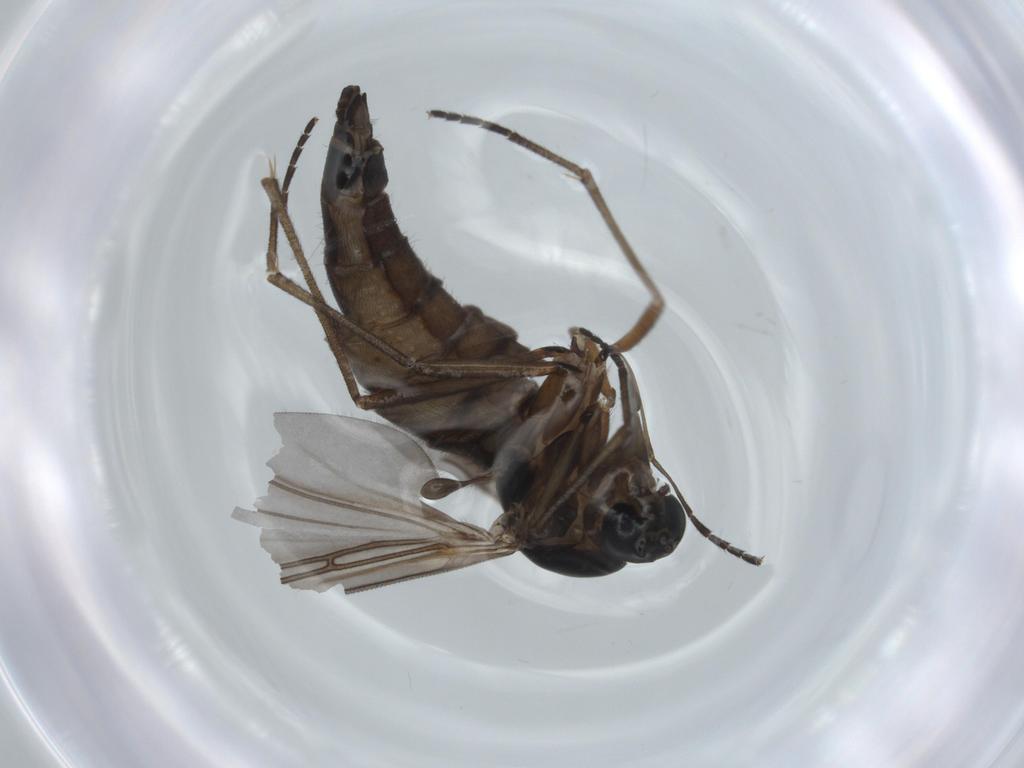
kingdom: Animalia
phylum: Arthropoda
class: Insecta
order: Diptera
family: Sciaridae
